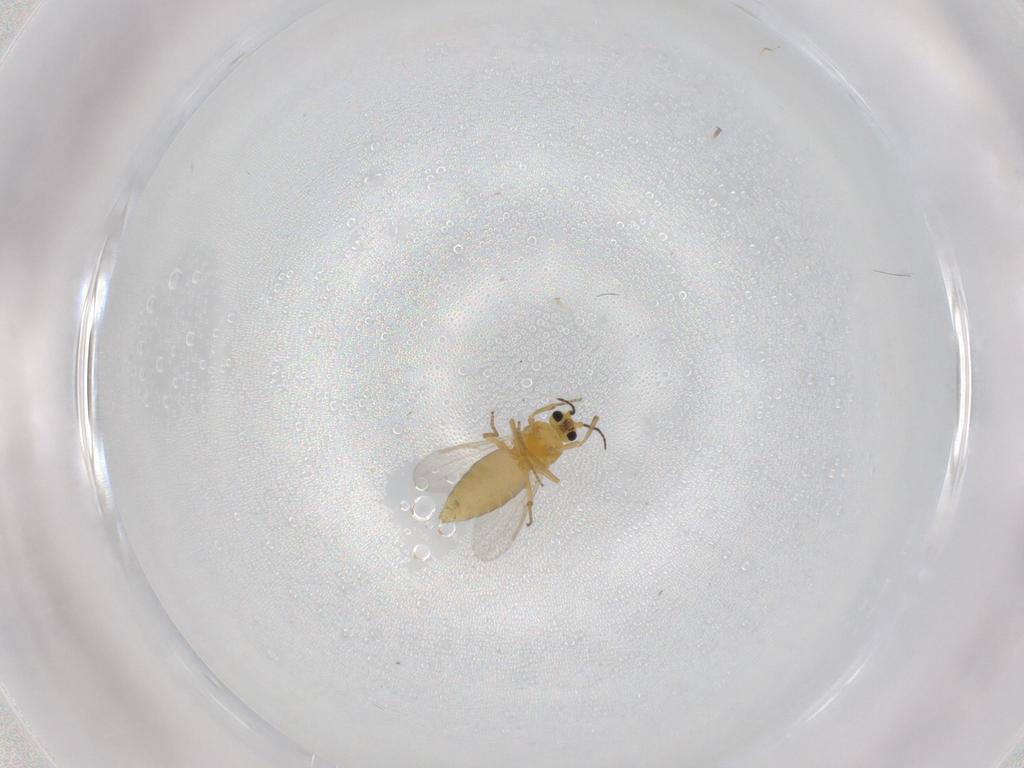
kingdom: Animalia
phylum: Arthropoda
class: Insecta
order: Diptera
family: Ceratopogonidae
